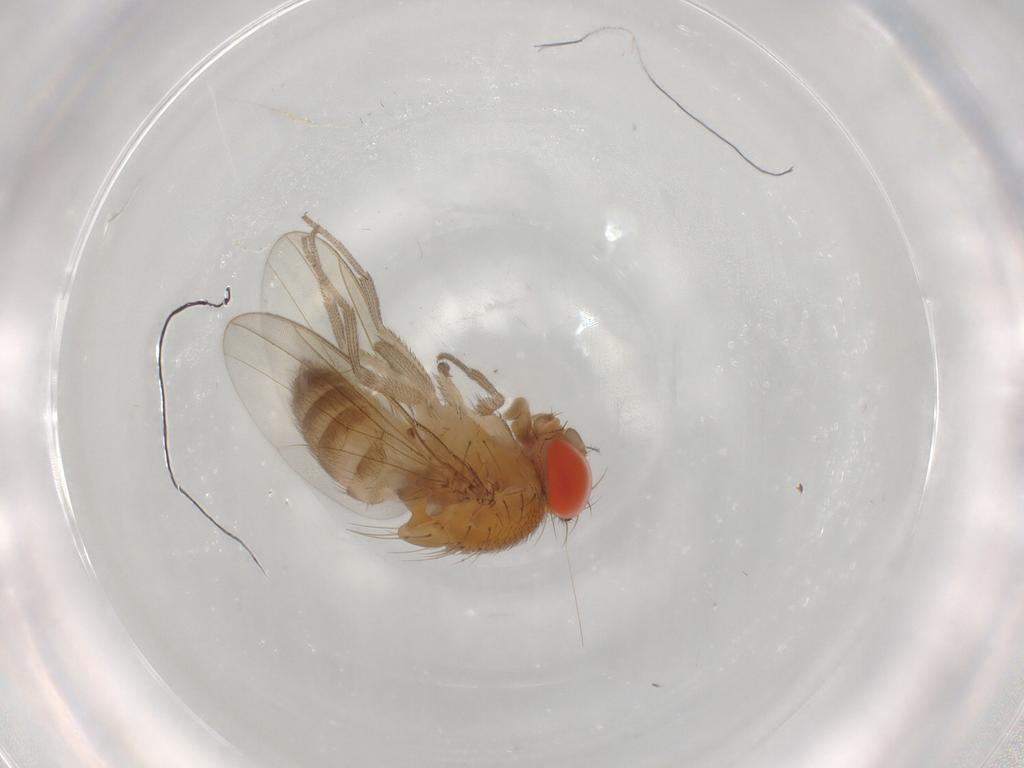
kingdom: Animalia
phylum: Arthropoda
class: Insecta
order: Diptera
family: Drosophilidae
